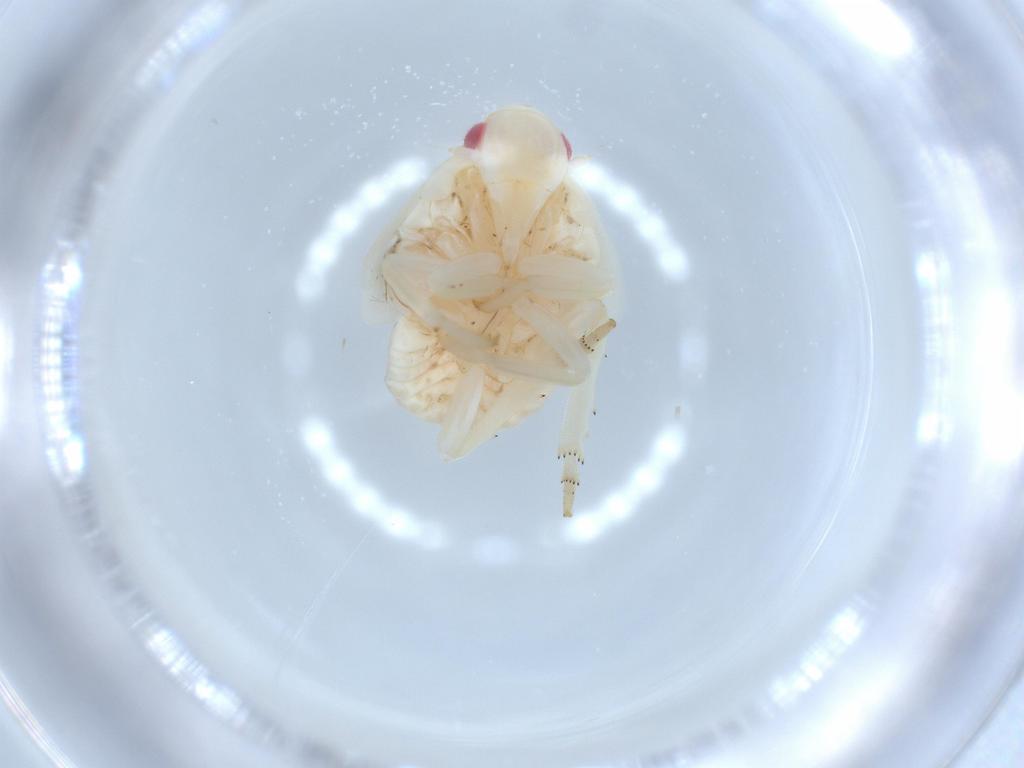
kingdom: Animalia
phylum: Arthropoda
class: Insecta
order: Hemiptera
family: Flatidae
